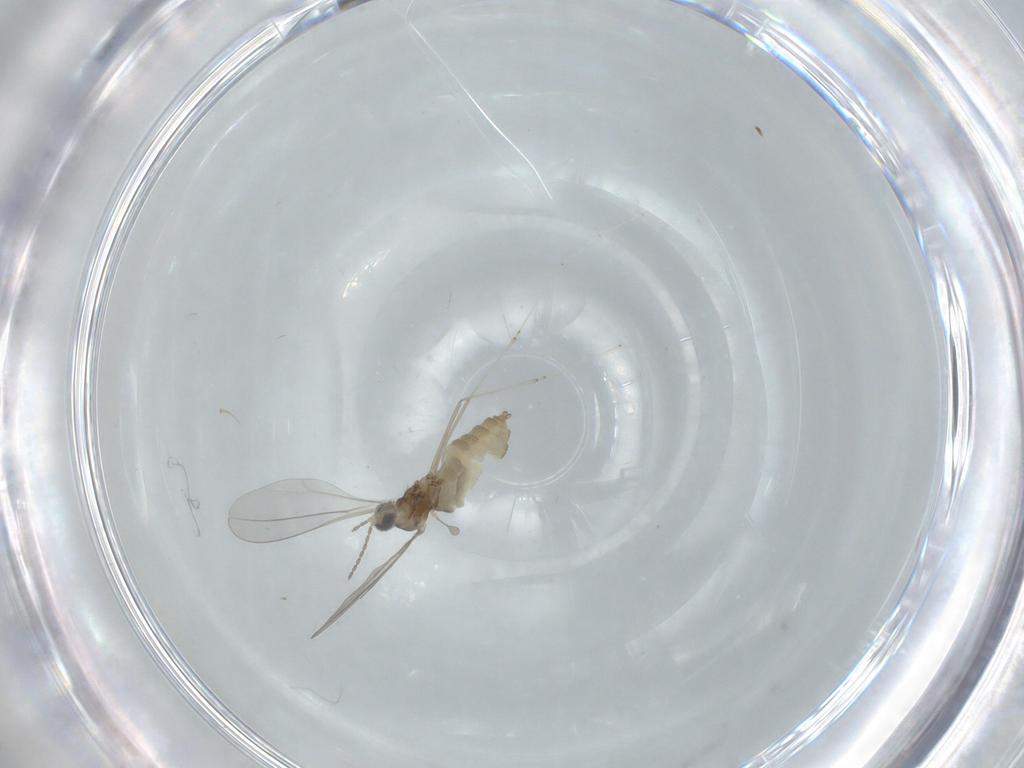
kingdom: Animalia
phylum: Arthropoda
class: Insecta
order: Diptera
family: Cecidomyiidae
